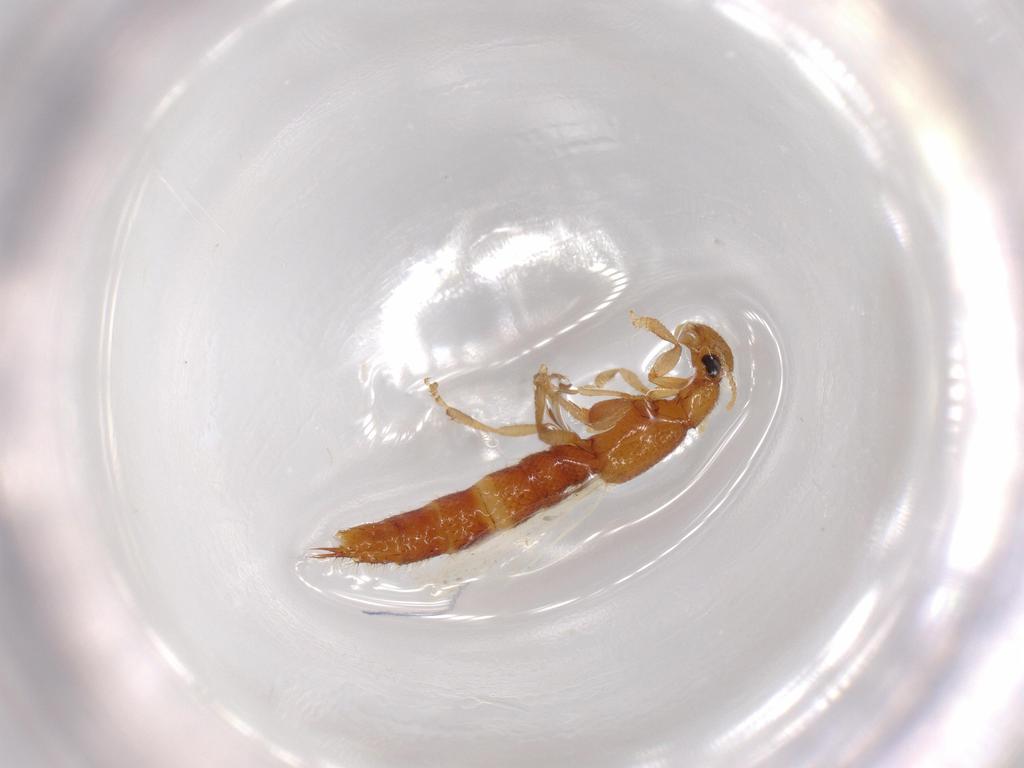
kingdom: Animalia
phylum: Arthropoda
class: Insecta
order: Coleoptera
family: Staphylinidae
